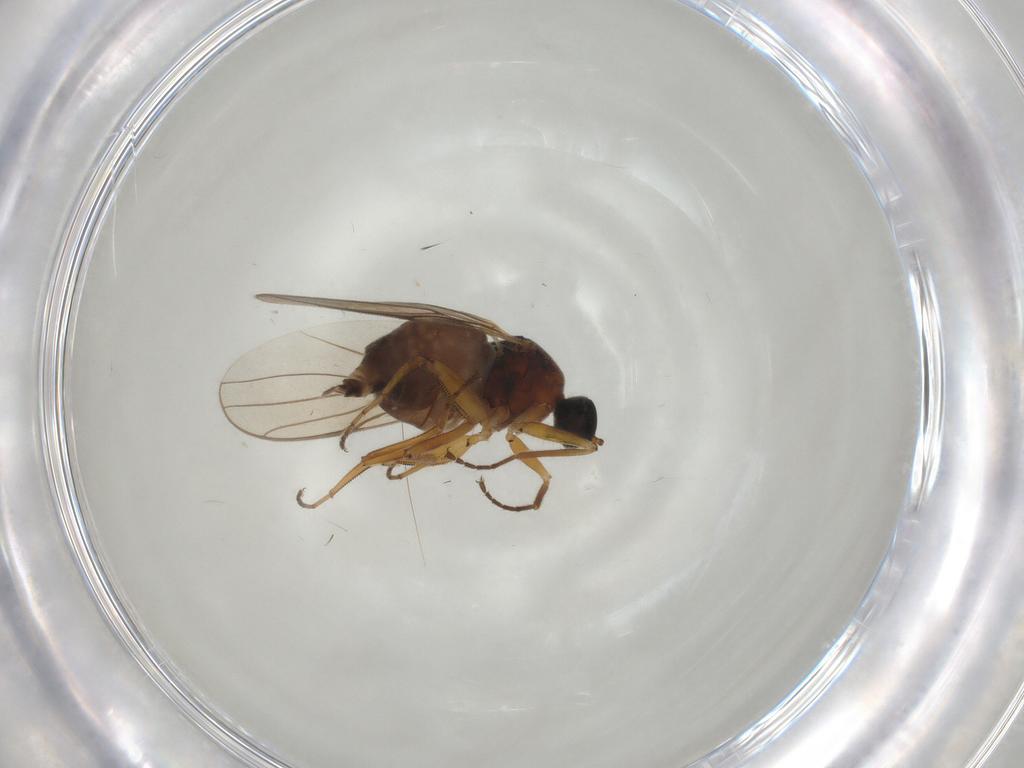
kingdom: Animalia
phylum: Arthropoda
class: Insecta
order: Diptera
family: Hybotidae
